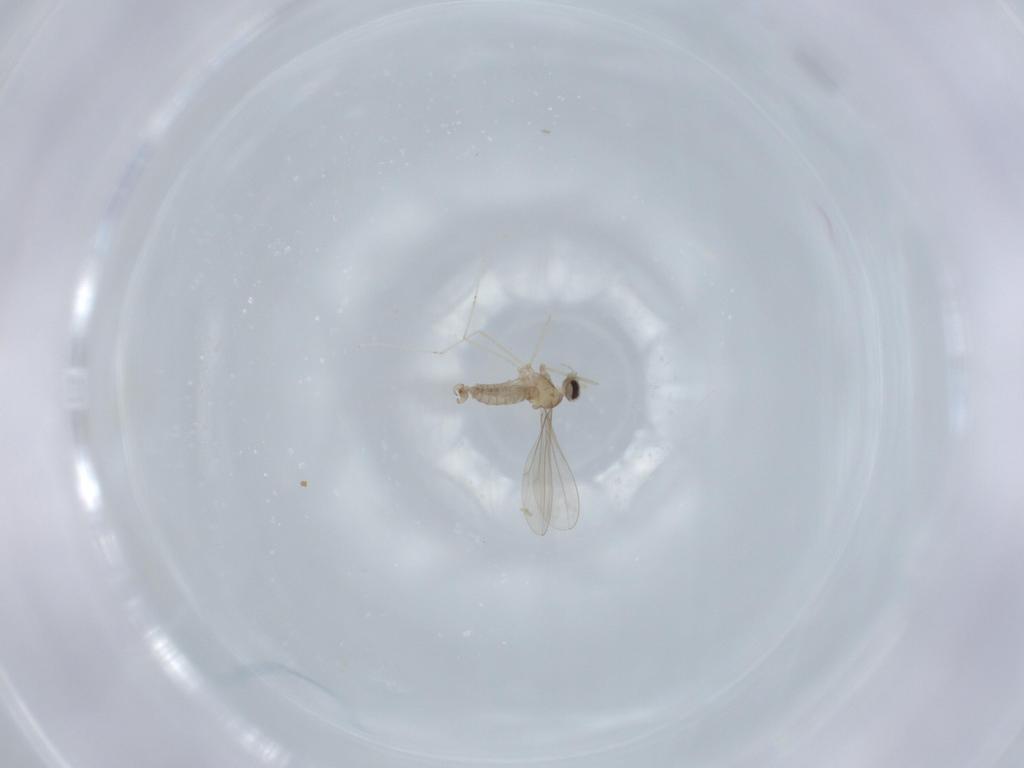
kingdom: Animalia
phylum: Arthropoda
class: Insecta
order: Diptera
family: Cecidomyiidae
